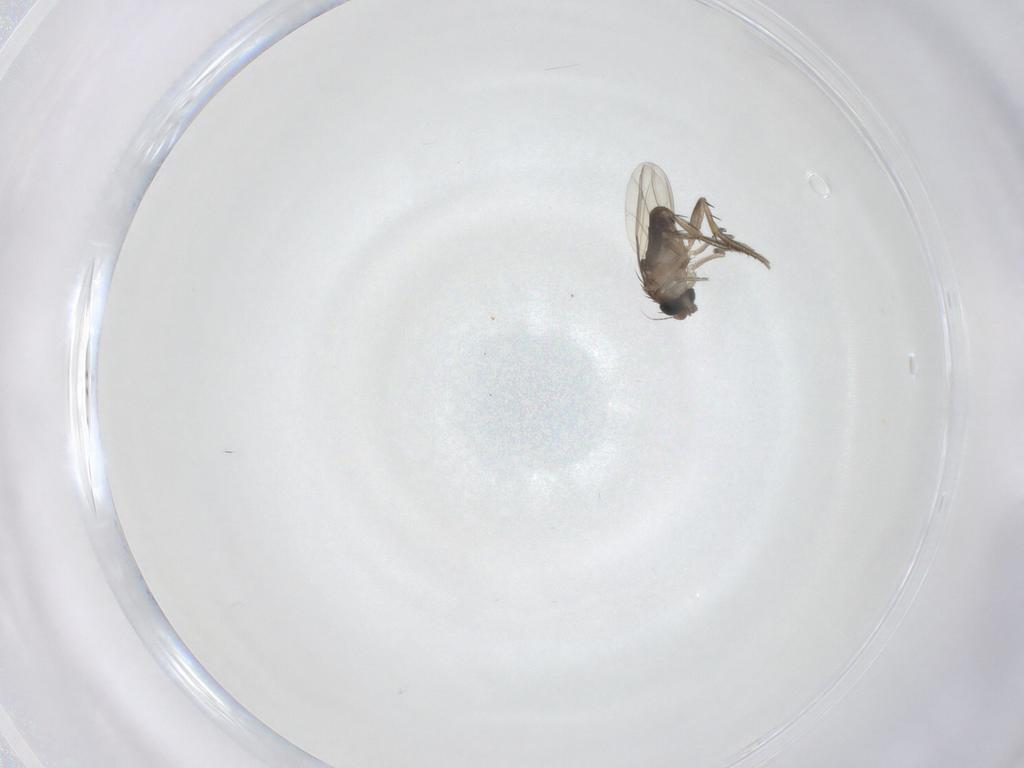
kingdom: Animalia
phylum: Arthropoda
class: Insecta
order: Diptera
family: Phoridae
